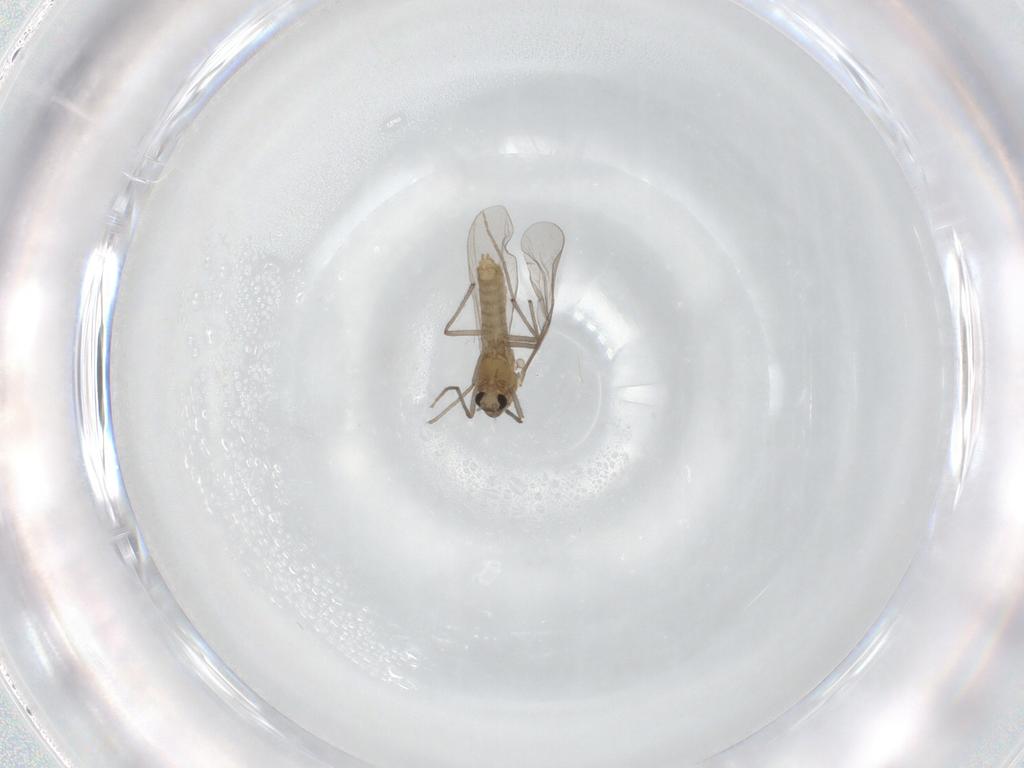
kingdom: Animalia
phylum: Arthropoda
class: Insecta
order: Diptera
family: Chironomidae
